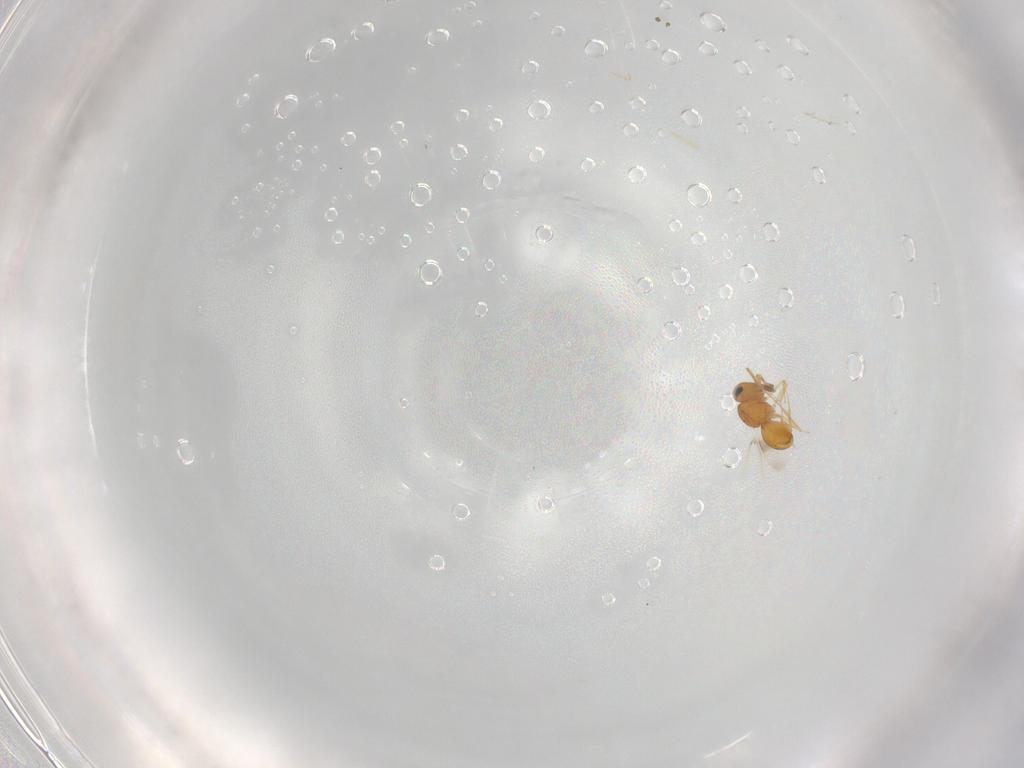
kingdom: Animalia
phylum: Arthropoda
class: Insecta
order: Hymenoptera
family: Scelionidae
